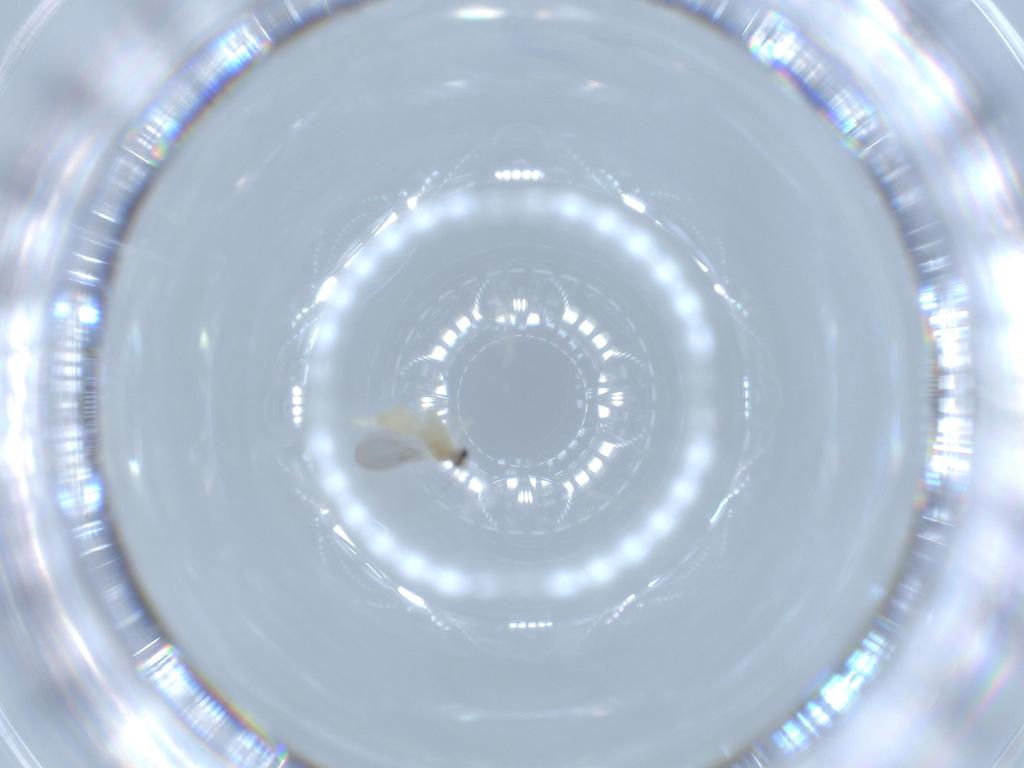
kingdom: Animalia
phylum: Arthropoda
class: Insecta
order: Diptera
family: Cecidomyiidae
